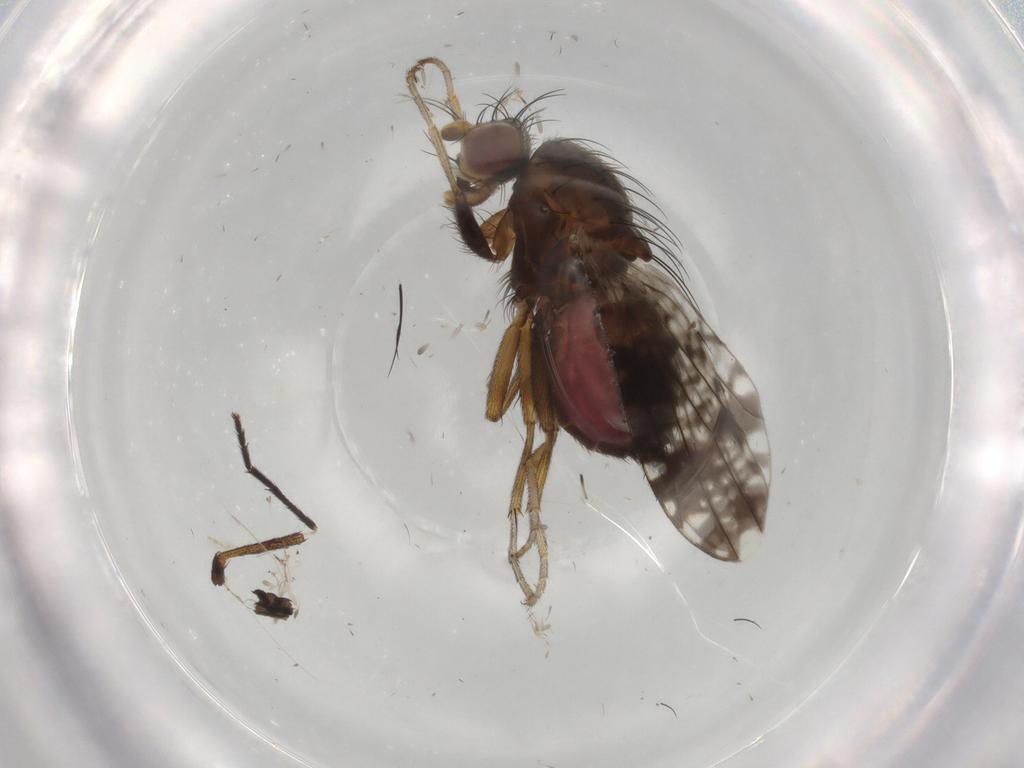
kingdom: Animalia
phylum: Arthropoda
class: Insecta
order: Diptera
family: Tephritidae
